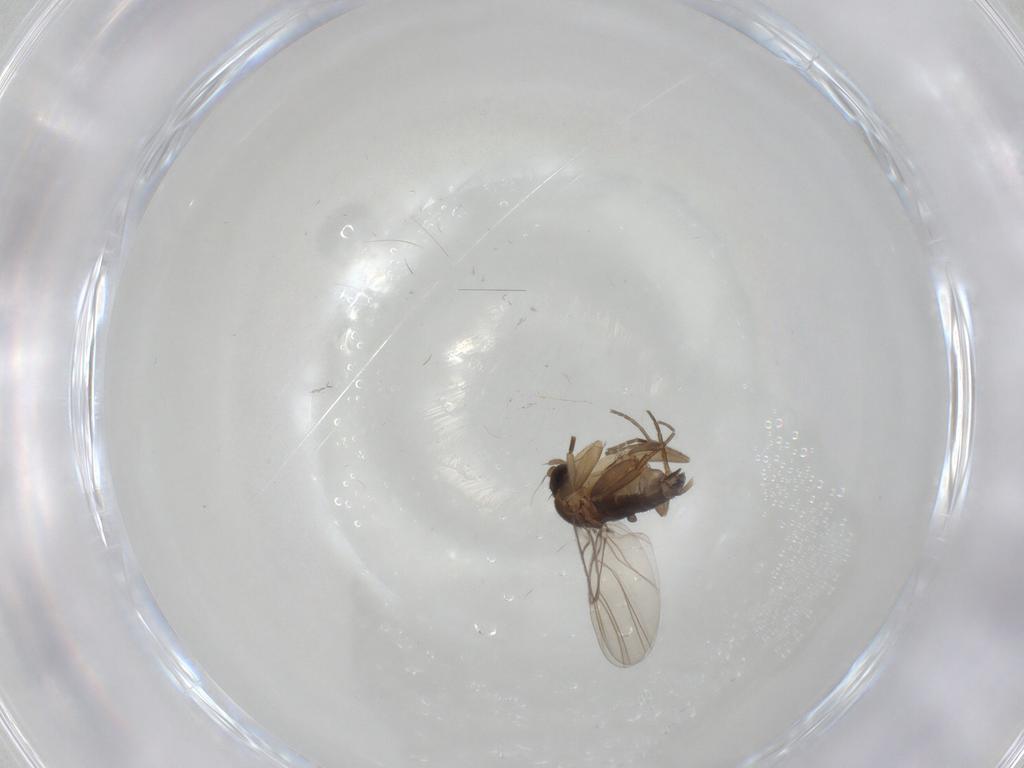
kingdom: Animalia
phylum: Arthropoda
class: Insecta
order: Diptera
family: Phoridae
